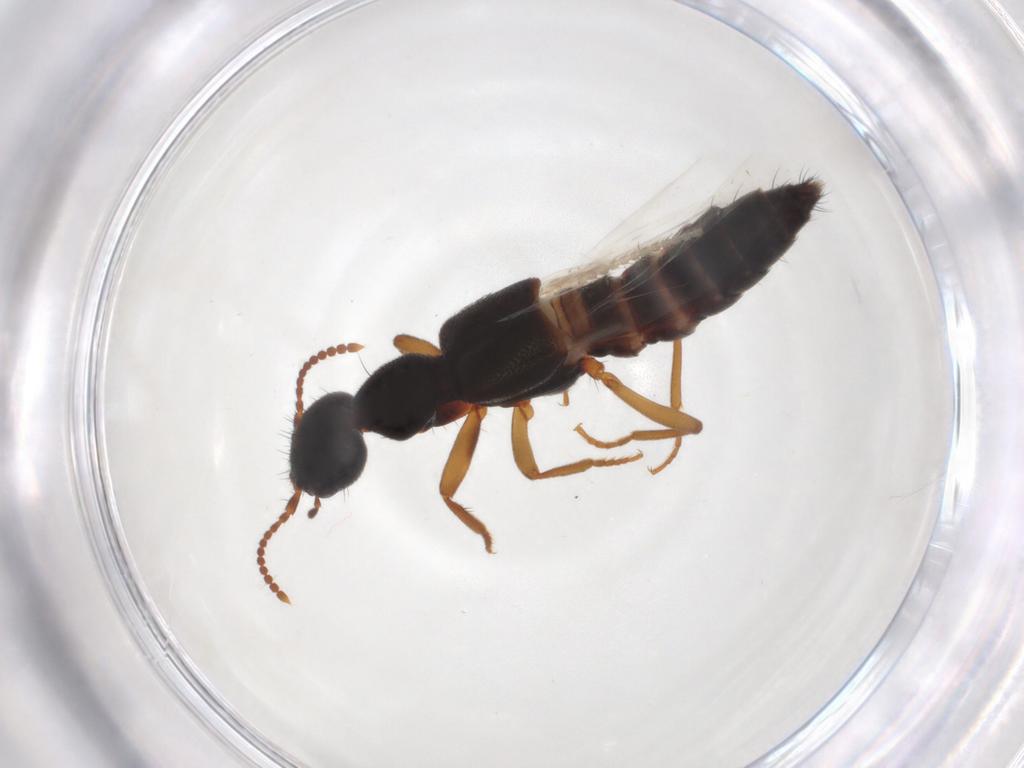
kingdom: Animalia
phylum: Arthropoda
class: Insecta
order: Coleoptera
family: Staphylinidae
